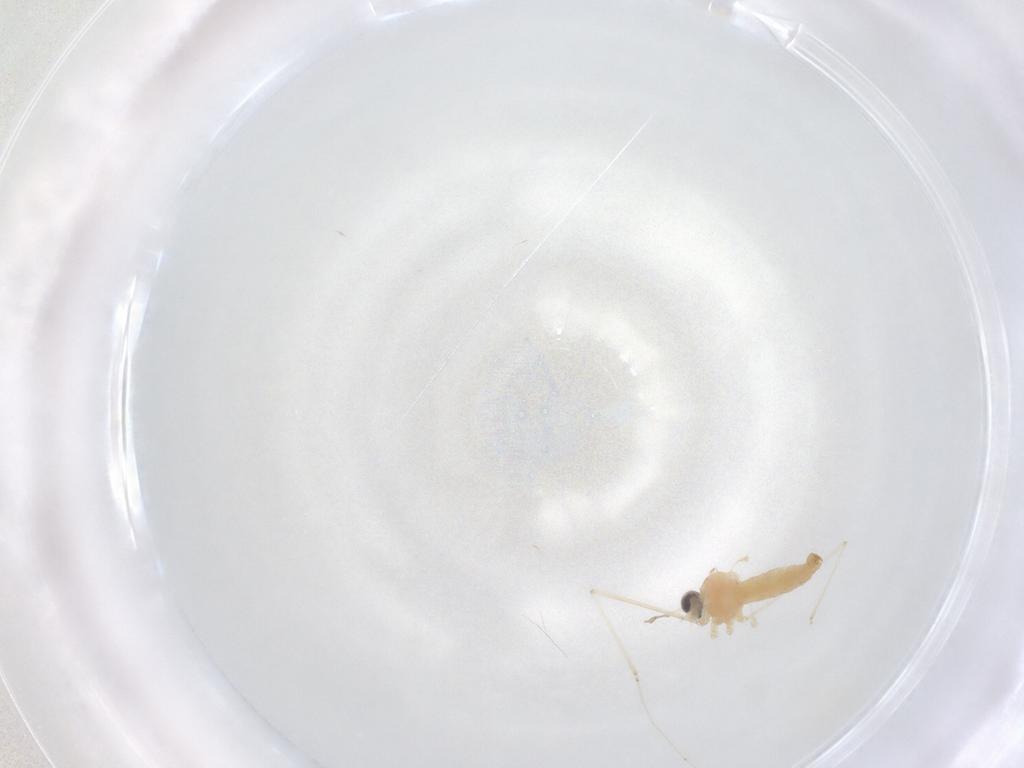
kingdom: Animalia
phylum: Arthropoda
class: Insecta
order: Diptera
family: Cecidomyiidae
